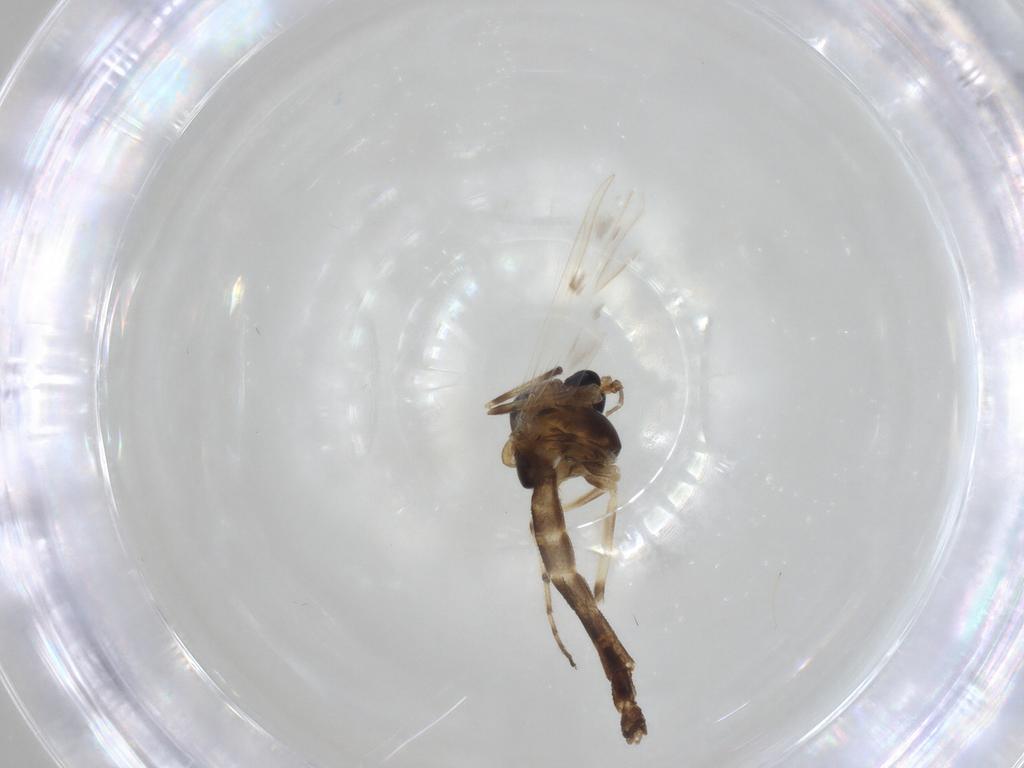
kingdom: Animalia
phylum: Arthropoda
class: Insecta
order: Diptera
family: Chironomidae
